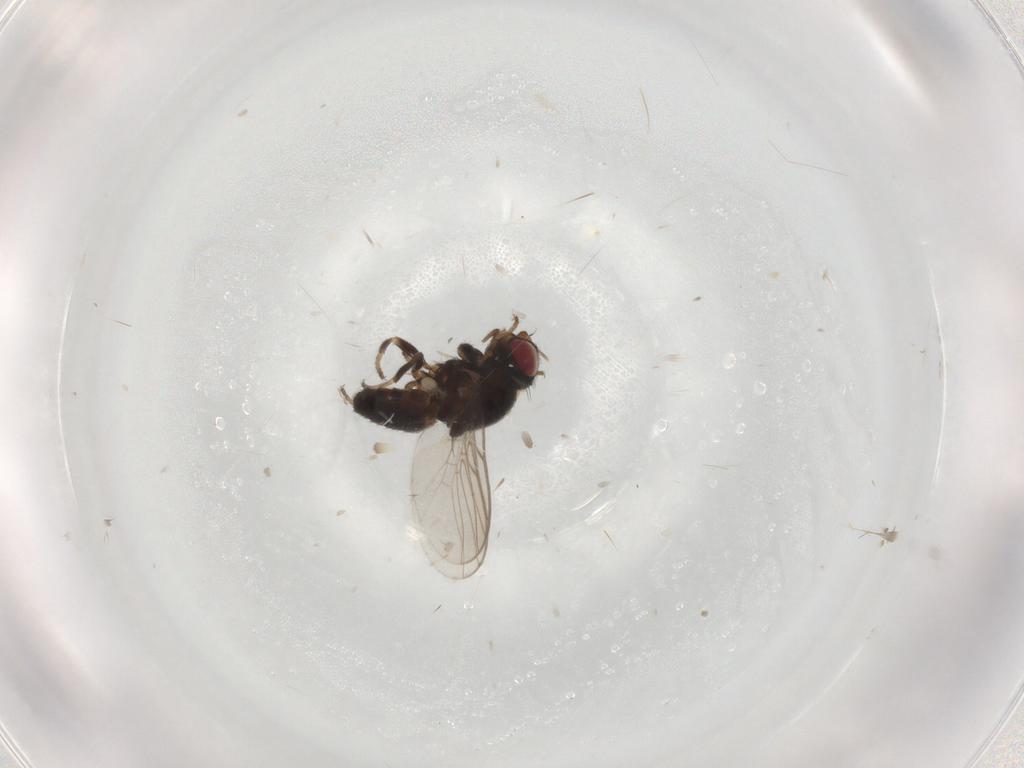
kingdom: Animalia
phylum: Arthropoda
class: Insecta
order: Diptera
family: Chloropidae
